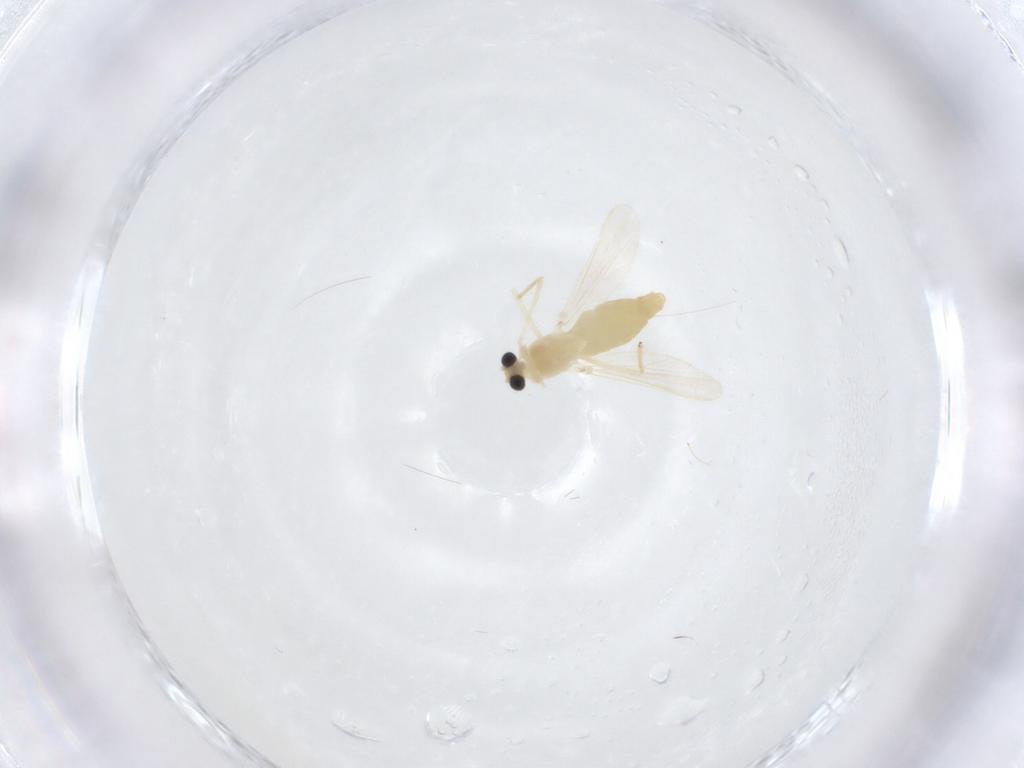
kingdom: Animalia
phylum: Arthropoda
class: Insecta
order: Diptera
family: Chironomidae
